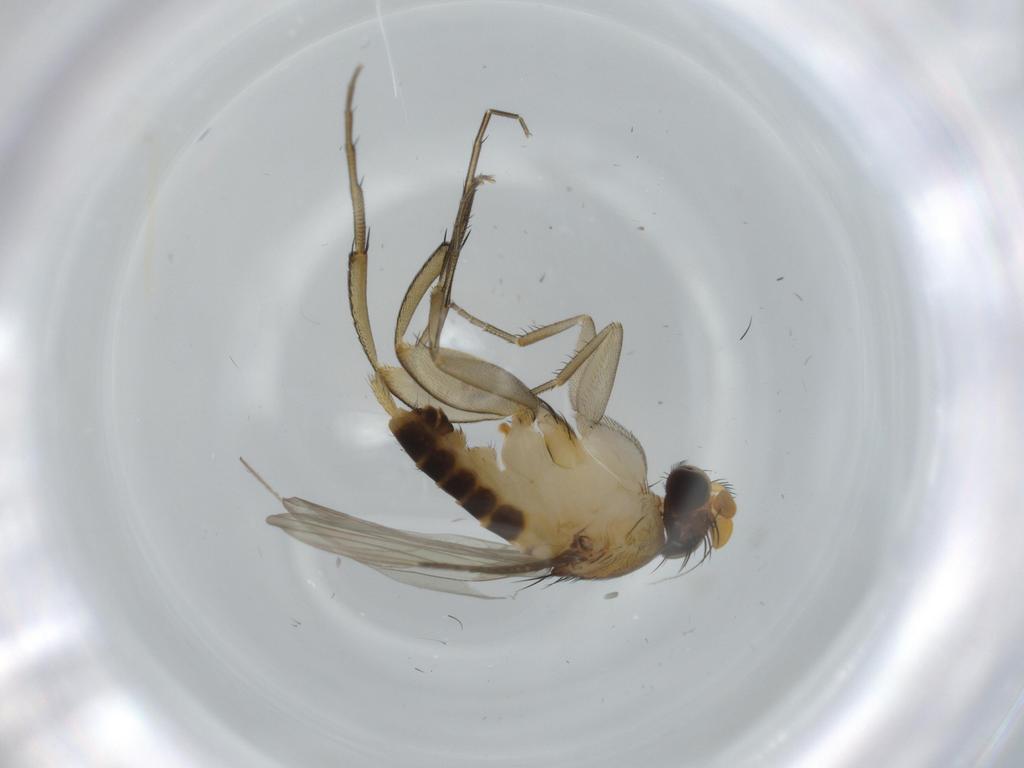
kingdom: Animalia
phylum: Arthropoda
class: Insecta
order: Diptera
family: Phoridae
